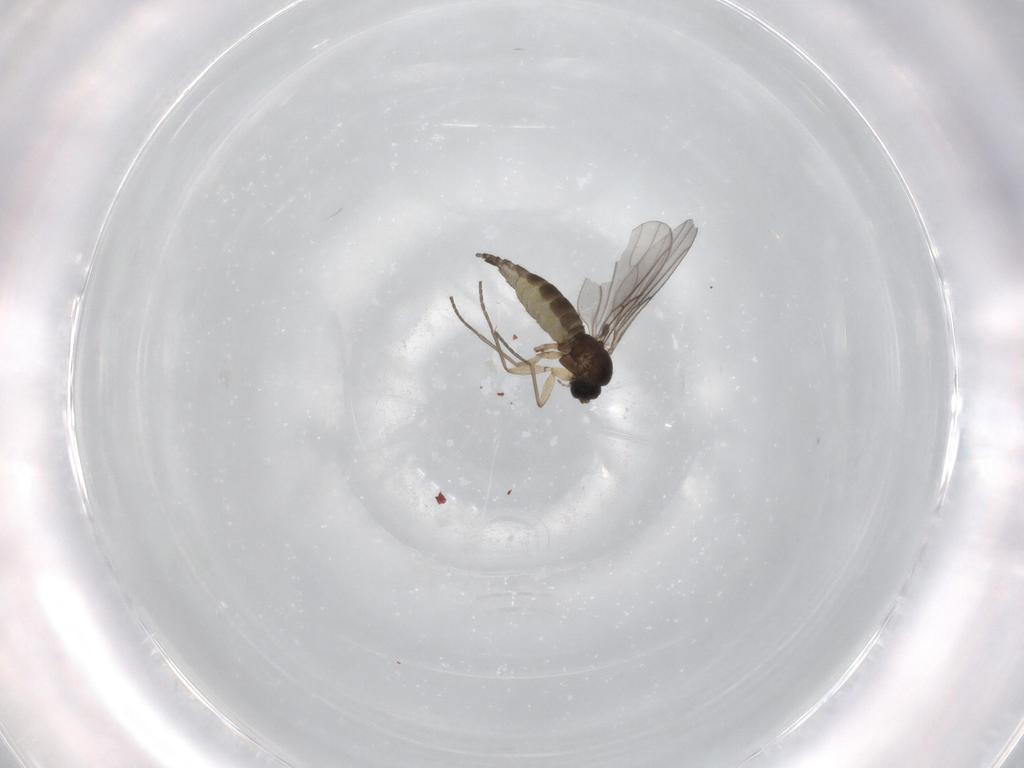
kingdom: Animalia
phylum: Arthropoda
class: Insecta
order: Diptera
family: Sciaridae
